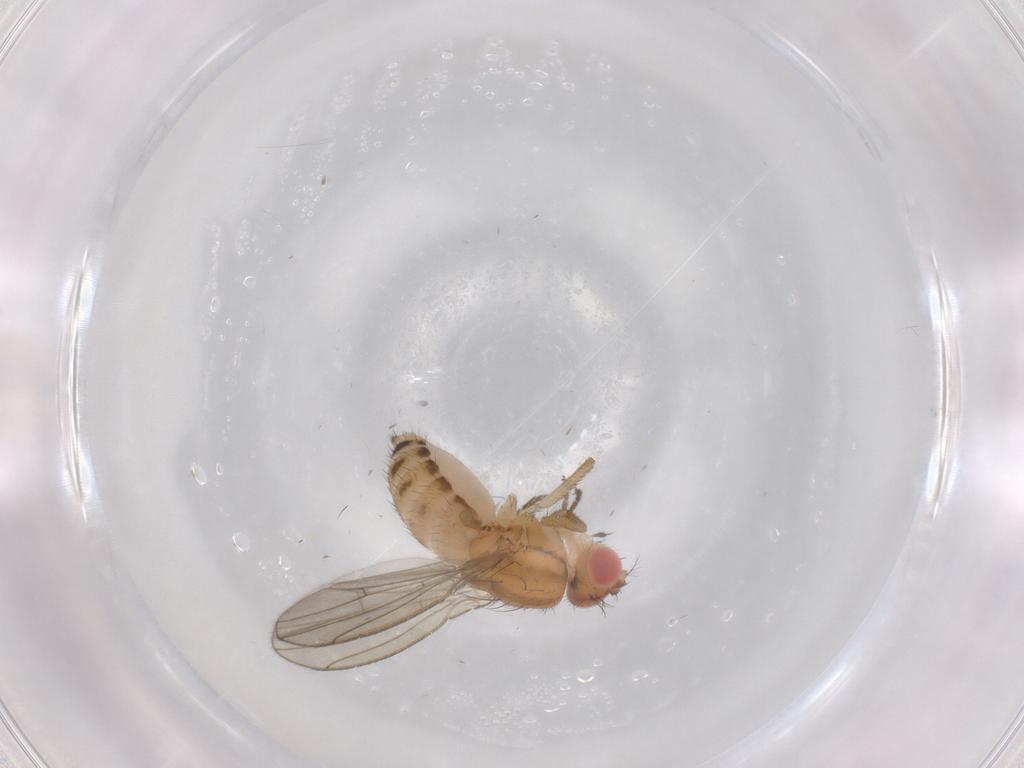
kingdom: Animalia
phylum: Arthropoda
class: Insecta
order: Diptera
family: Drosophilidae
